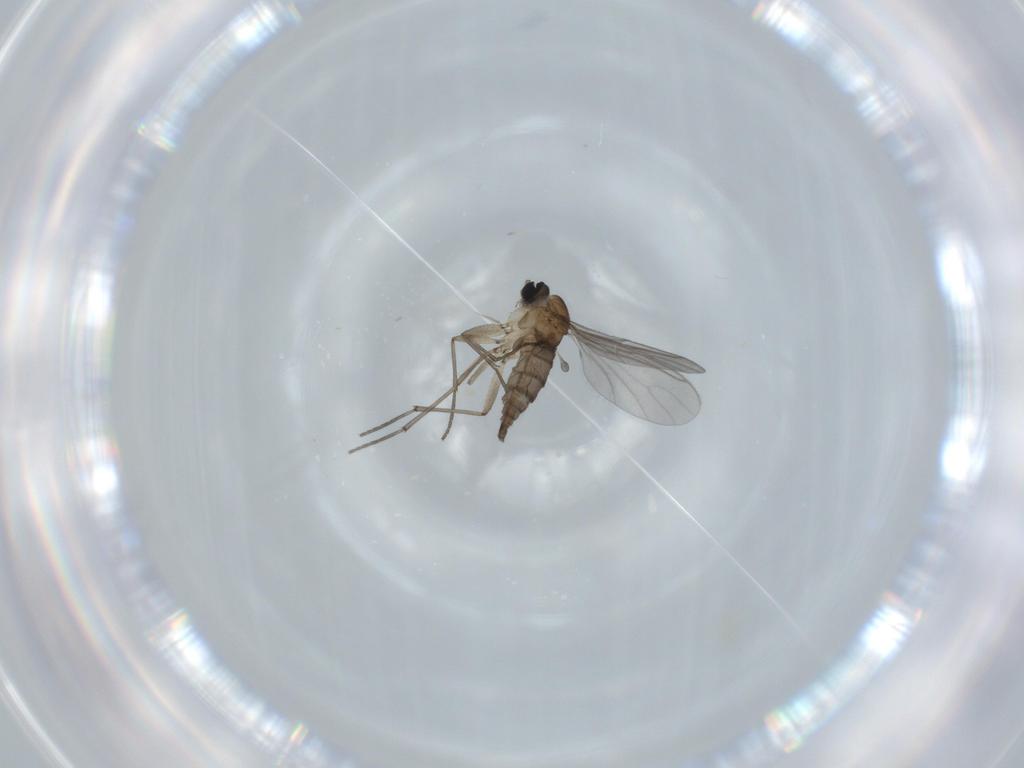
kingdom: Animalia
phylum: Arthropoda
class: Insecta
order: Diptera
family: Sciaridae
